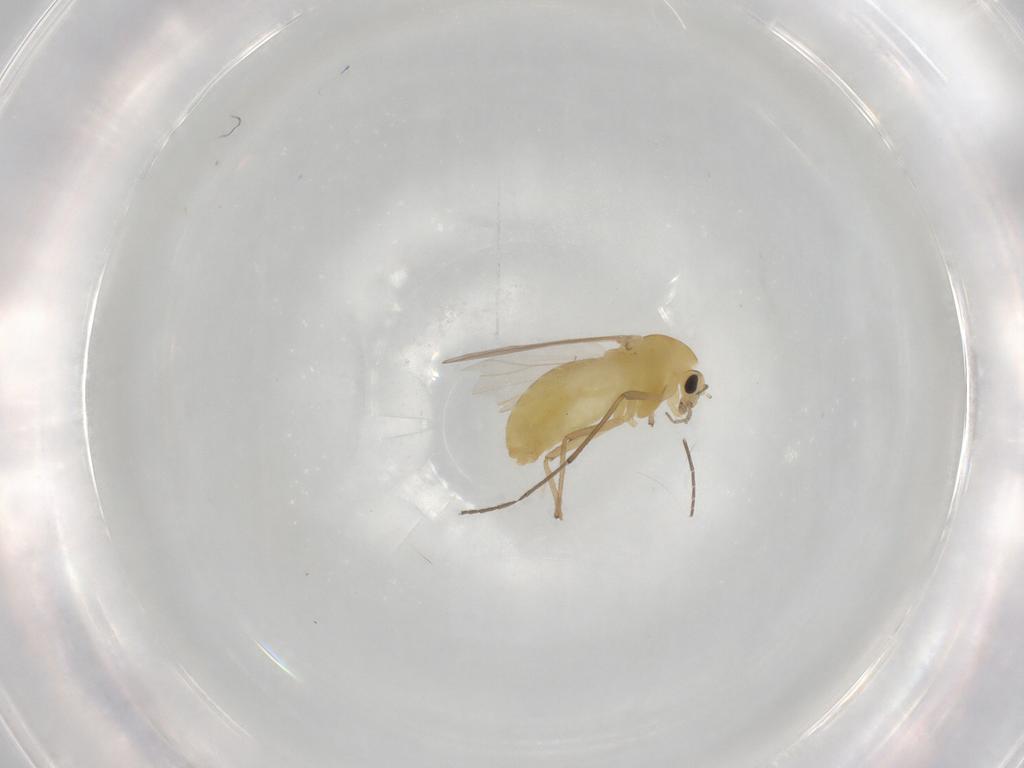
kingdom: Animalia
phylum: Arthropoda
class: Insecta
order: Diptera
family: Chironomidae
